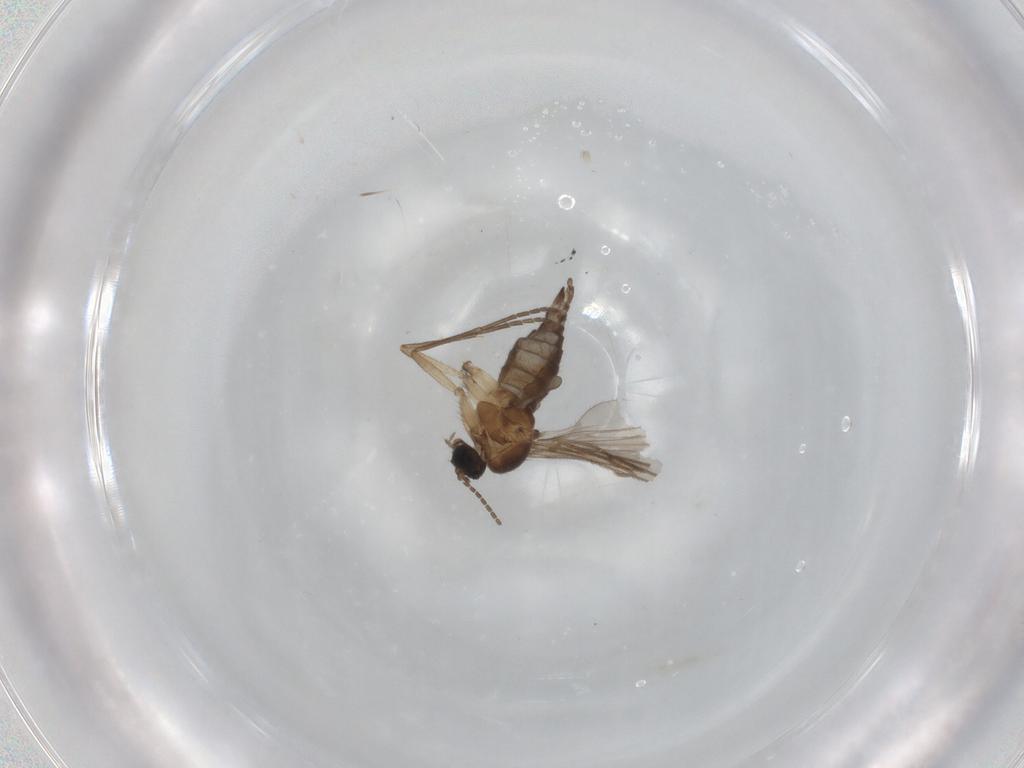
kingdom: Animalia
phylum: Arthropoda
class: Insecta
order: Diptera
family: Sciaridae
